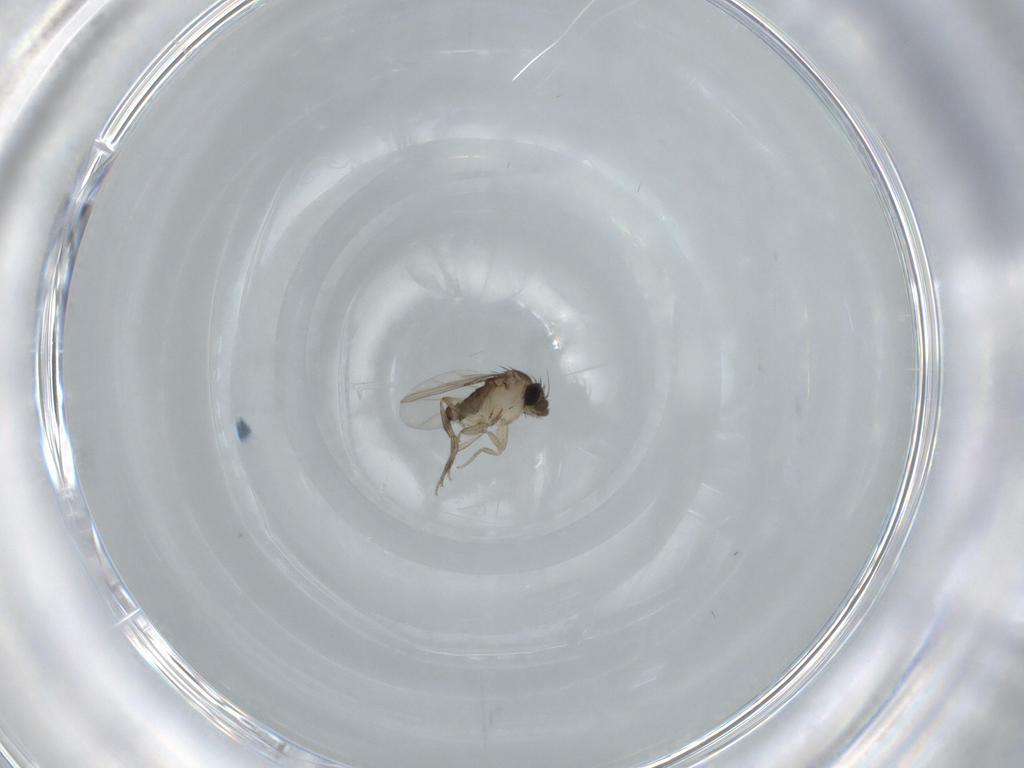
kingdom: Animalia
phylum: Arthropoda
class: Insecta
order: Diptera
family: Phoridae
